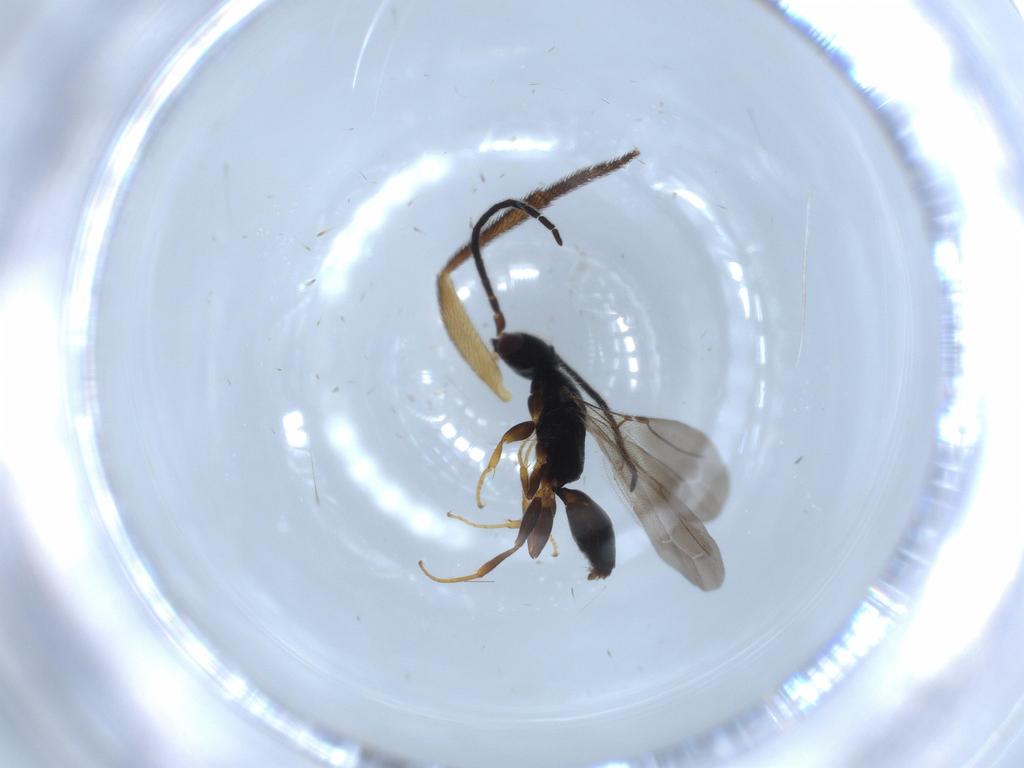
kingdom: Animalia
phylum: Arthropoda
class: Insecta
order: Hymenoptera
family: Bethylidae
